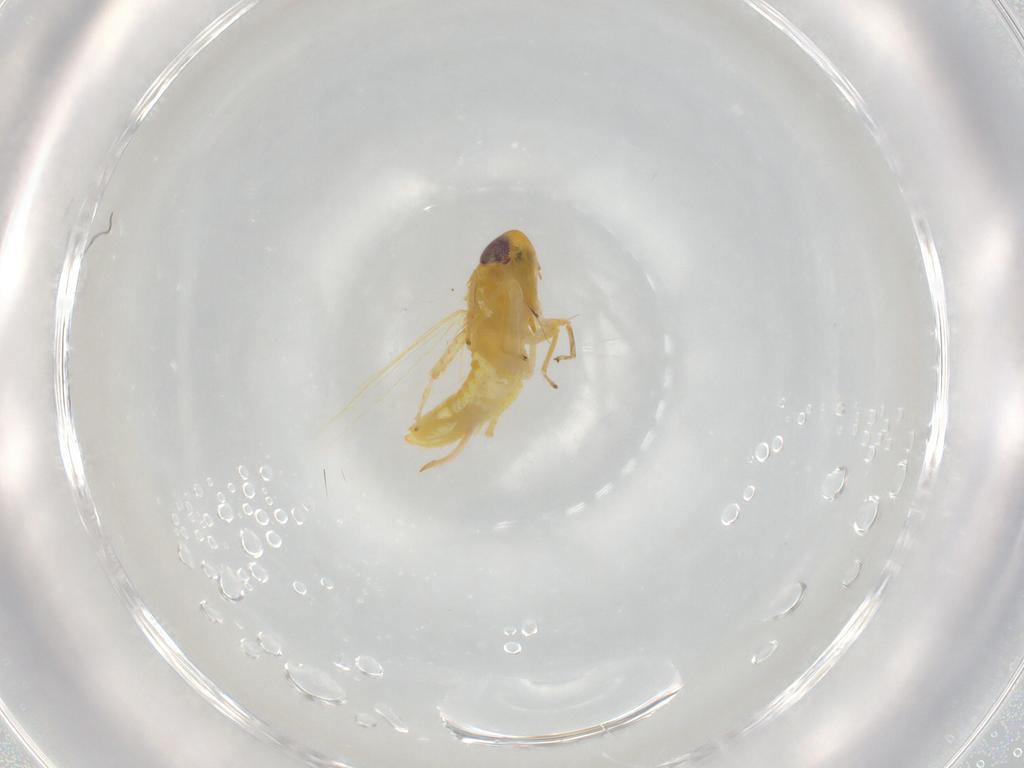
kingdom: Animalia
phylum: Arthropoda
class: Insecta
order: Hemiptera
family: Cicadellidae
